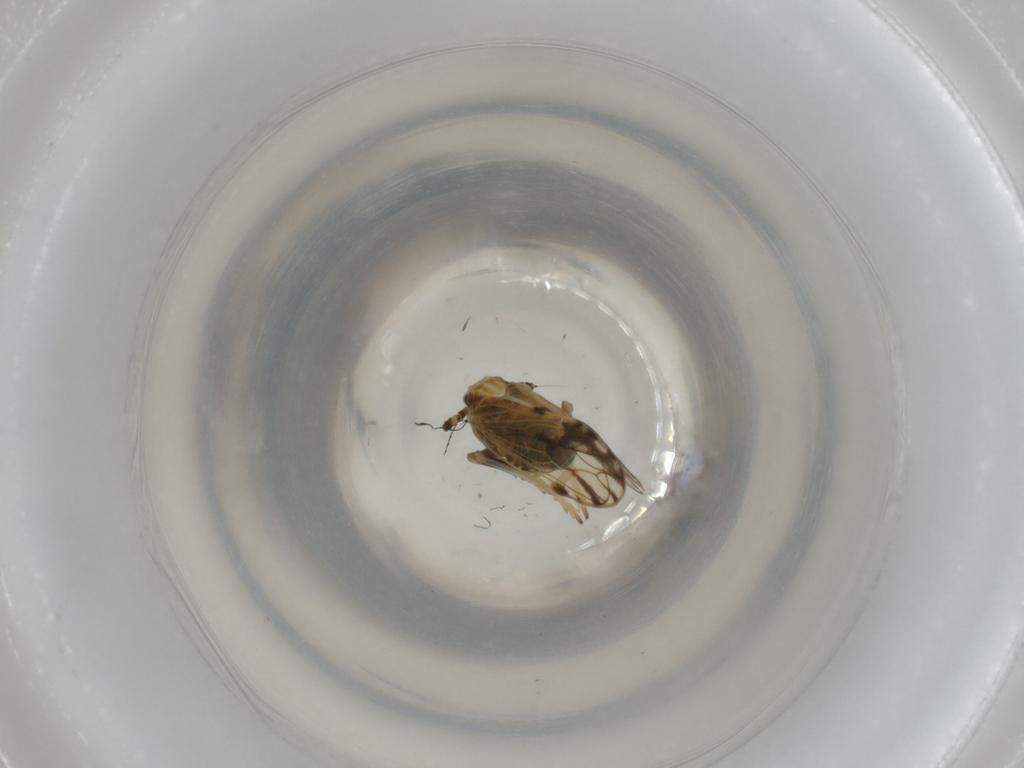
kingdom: Animalia
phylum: Arthropoda
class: Insecta
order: Hemiptera
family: Delphacidae
